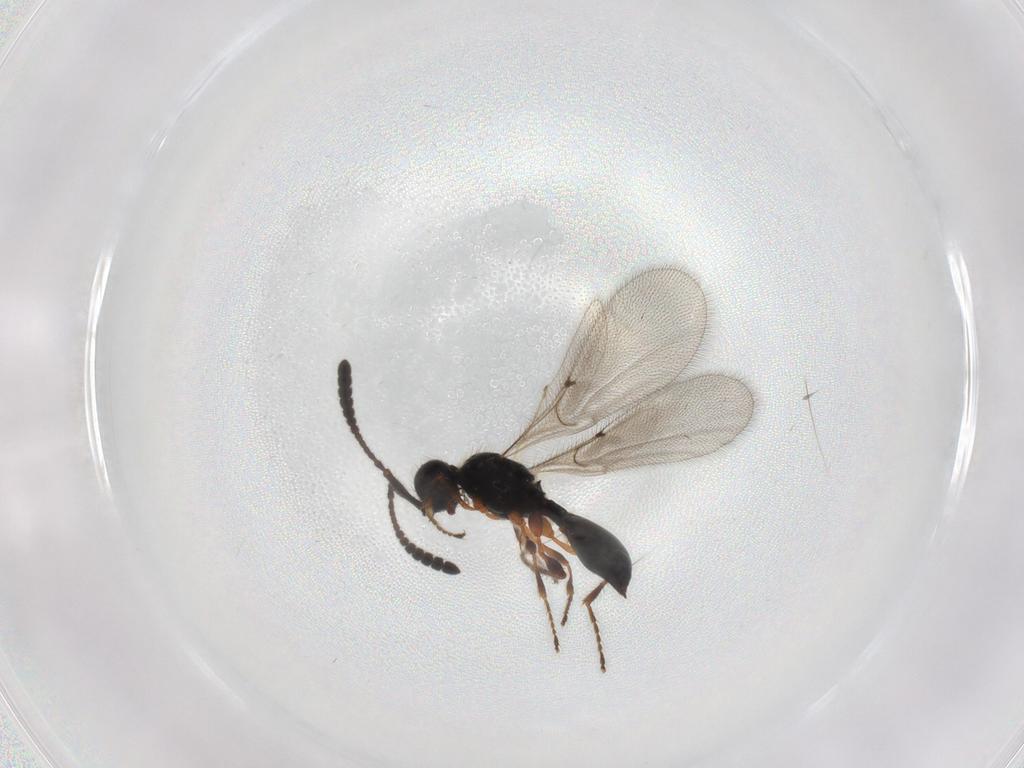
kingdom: Animalia
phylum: Arthropoda
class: Insecta
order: Hymenoptera
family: Diapriidae
